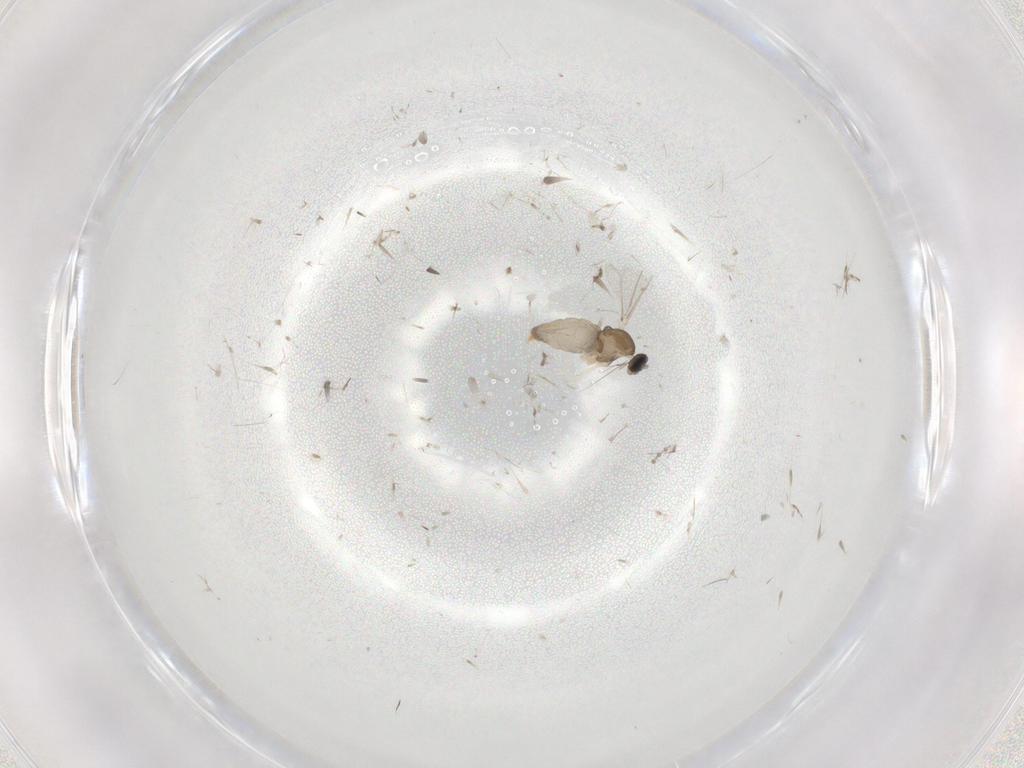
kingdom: Animalia
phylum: Arthropoda
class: Insecta
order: Diptera
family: Cecidomyiidae
